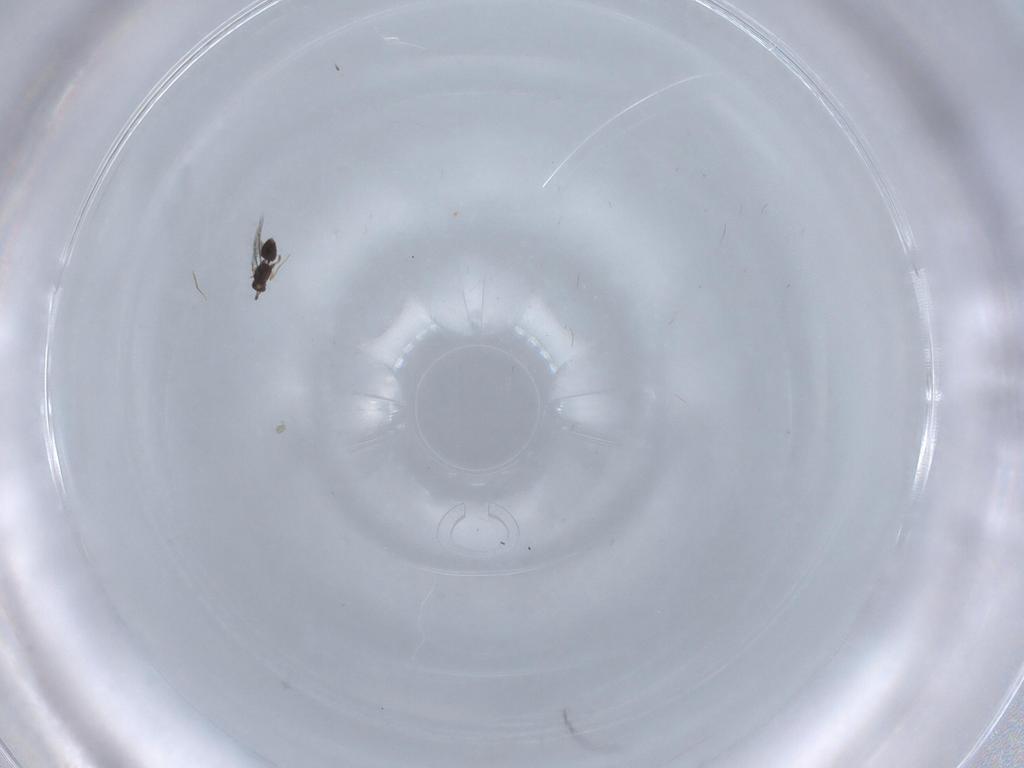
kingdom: Animalia
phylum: Arthropoda
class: Insecta
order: Hymenoptera
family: Mymaridae
